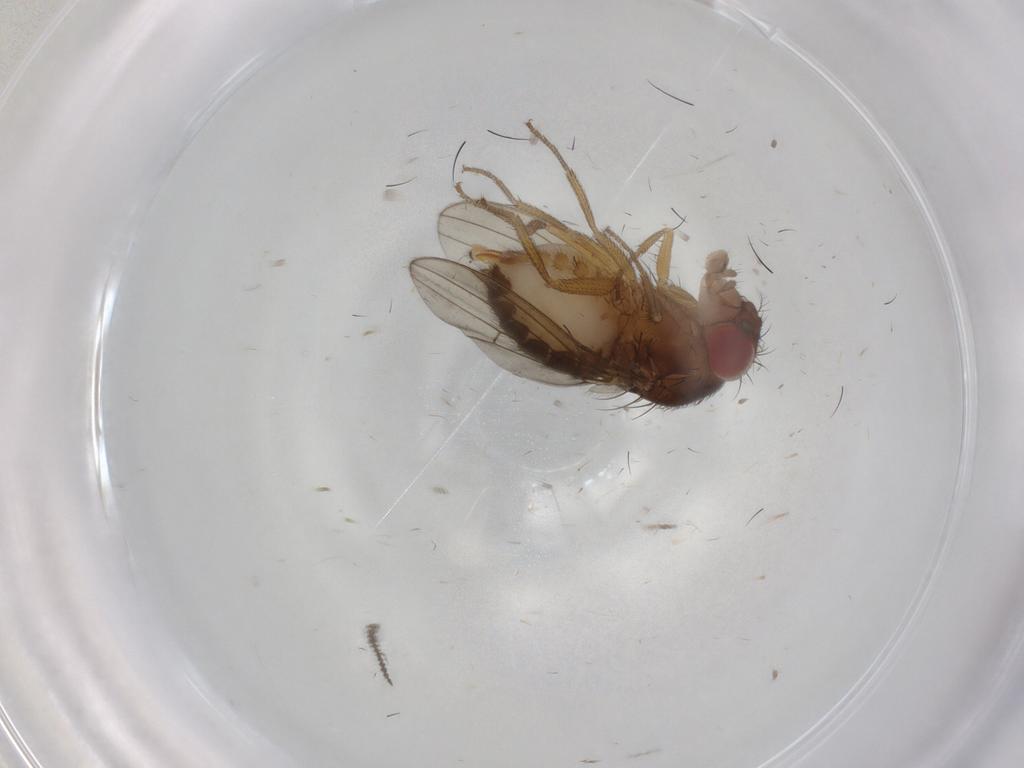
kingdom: Animalia
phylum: Arthropoda
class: Insecta
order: Diptera
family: Drosophilidae
